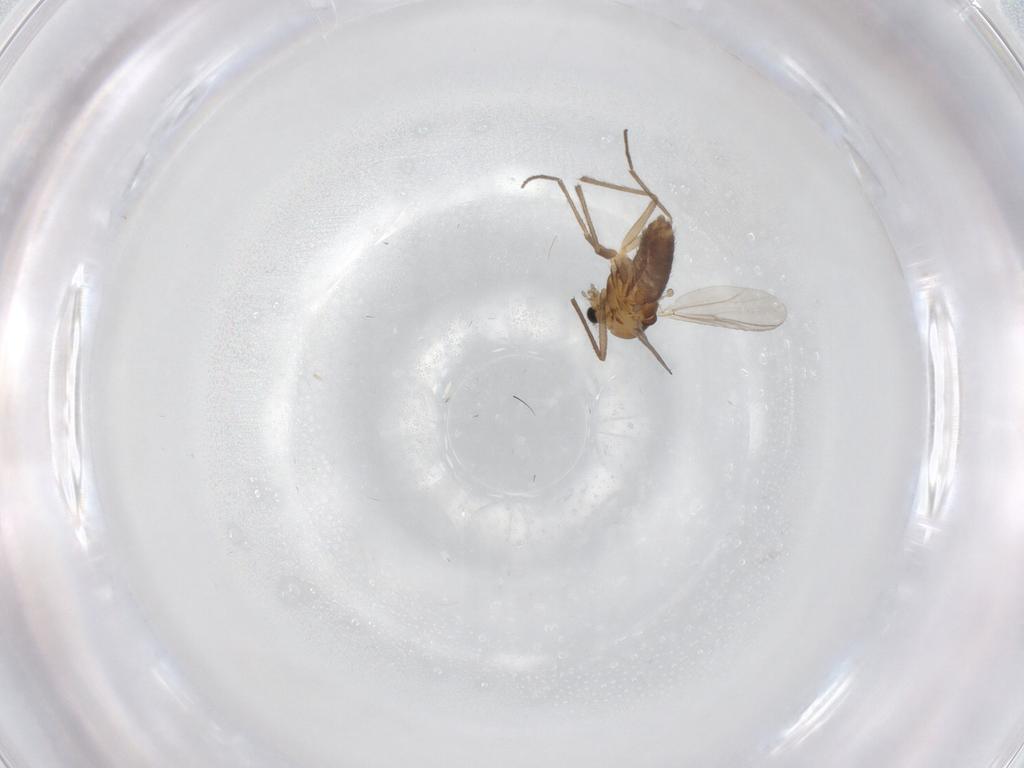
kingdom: Animalia
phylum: Arthropoda
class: Insecta
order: Diptera
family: Chironomidae
